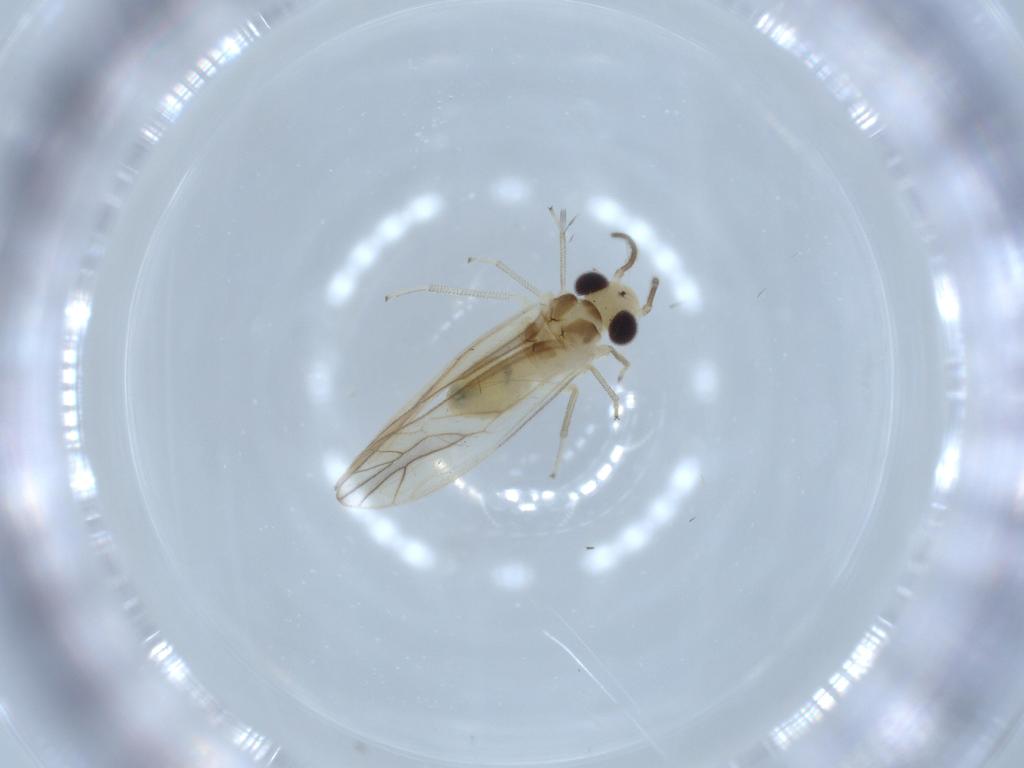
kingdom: Animalia
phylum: Arthropoda
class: Insecta
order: Psocodea
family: Caeciliusidae
